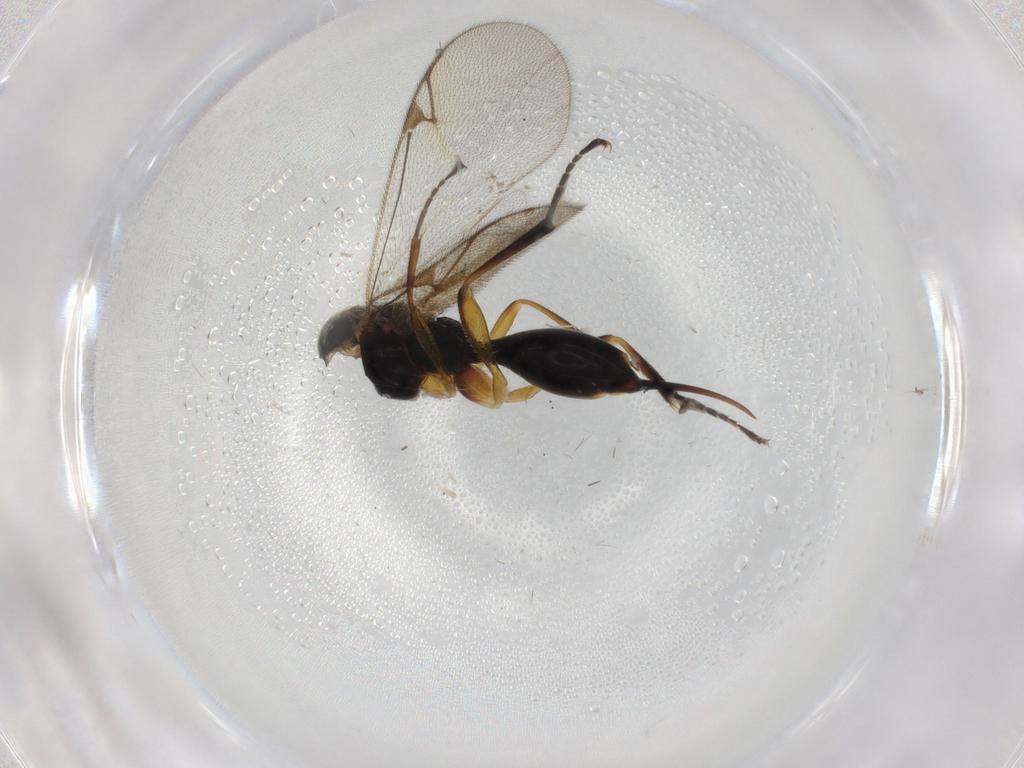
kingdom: Animalia
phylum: Arthropoda
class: Insecta
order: Hymenoptera
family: Proctotrupidae
